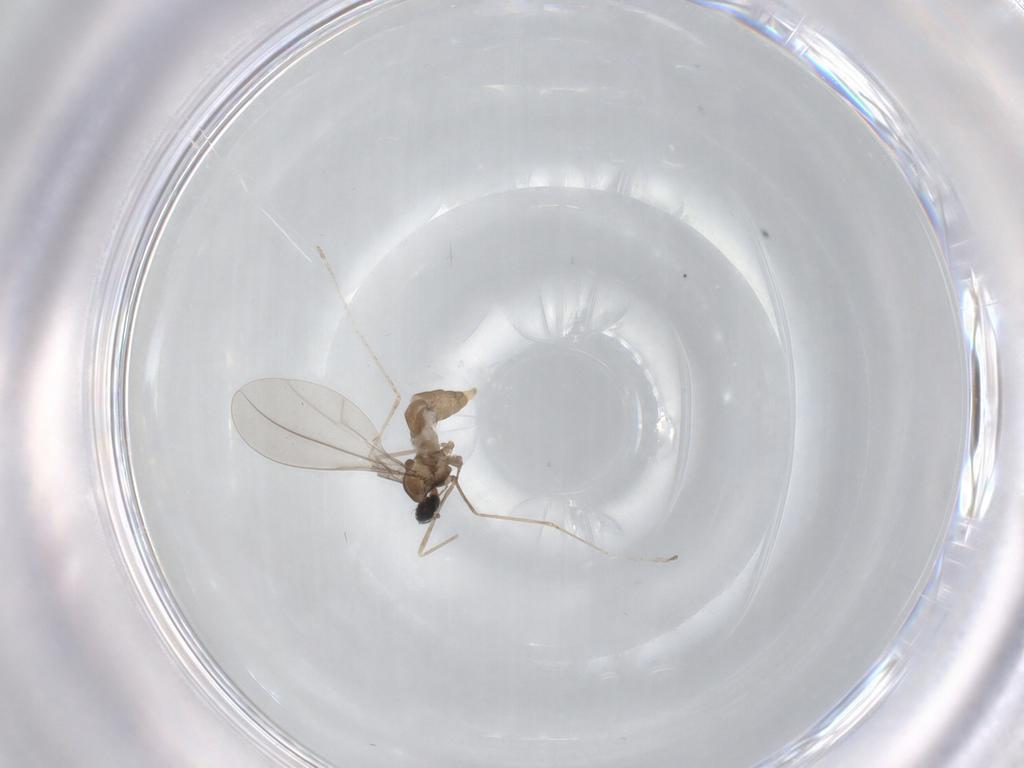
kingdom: Animalia
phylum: Arthropoda
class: Insecta
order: Diptera
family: Cecidomyiidae
